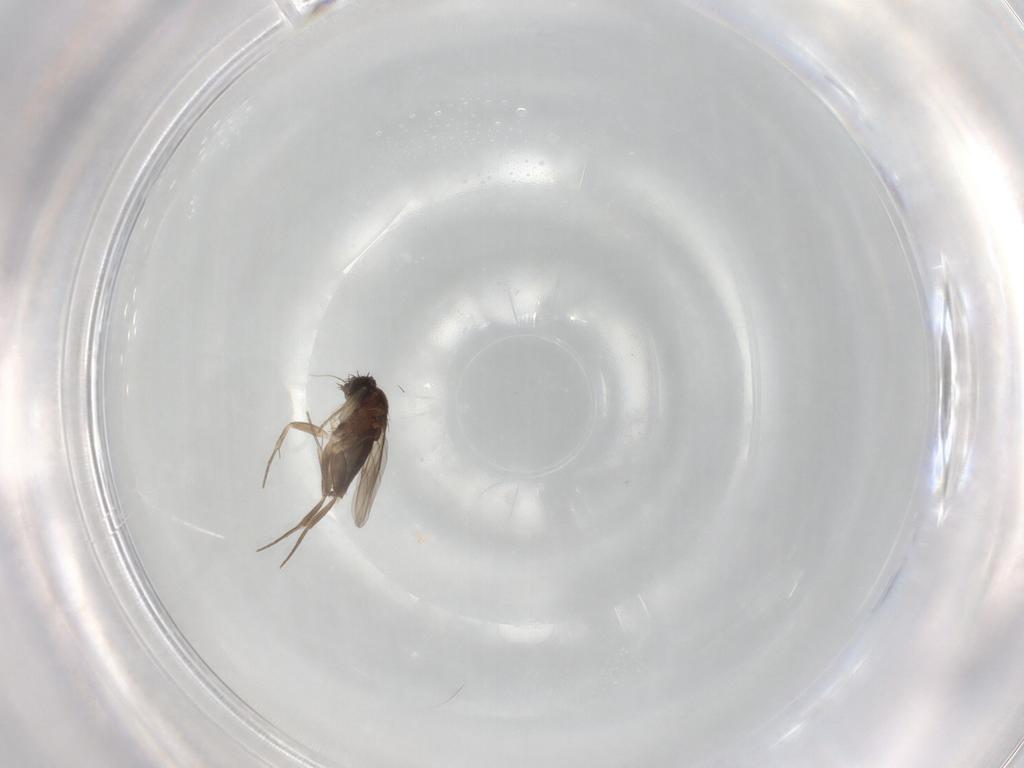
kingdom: Animalia
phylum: Arthropoda
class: Insecta
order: Diptera
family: Phoridae
